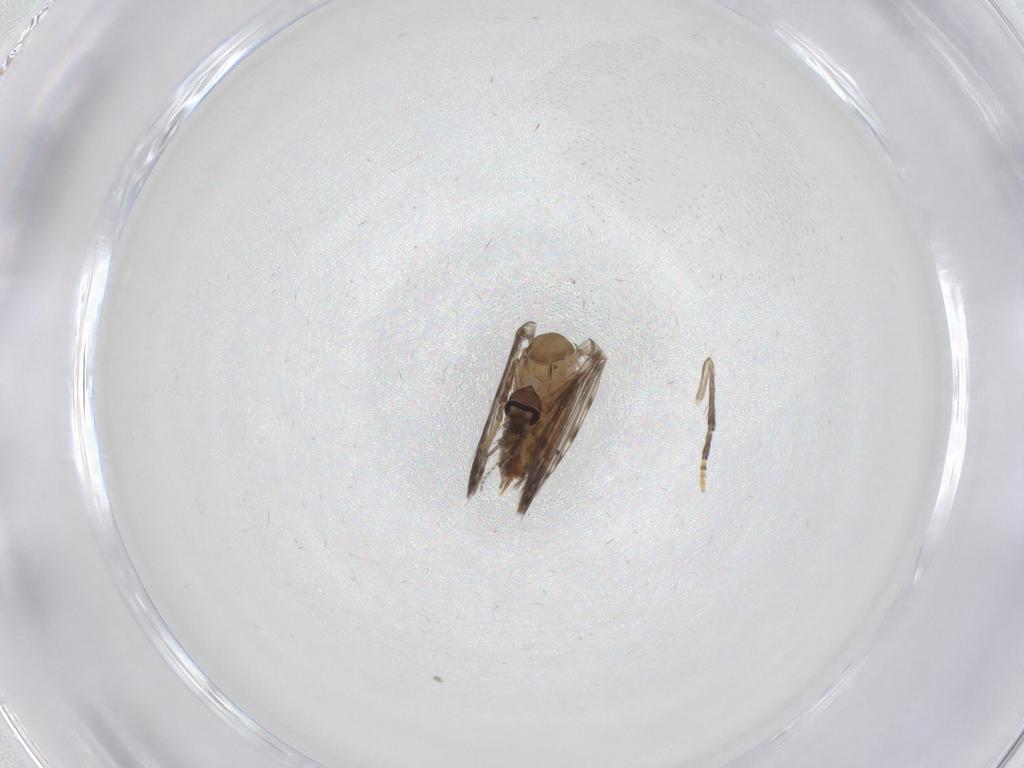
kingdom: Animalia
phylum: Arthropoda
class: Insecta
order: Diptera
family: Psychodidae
